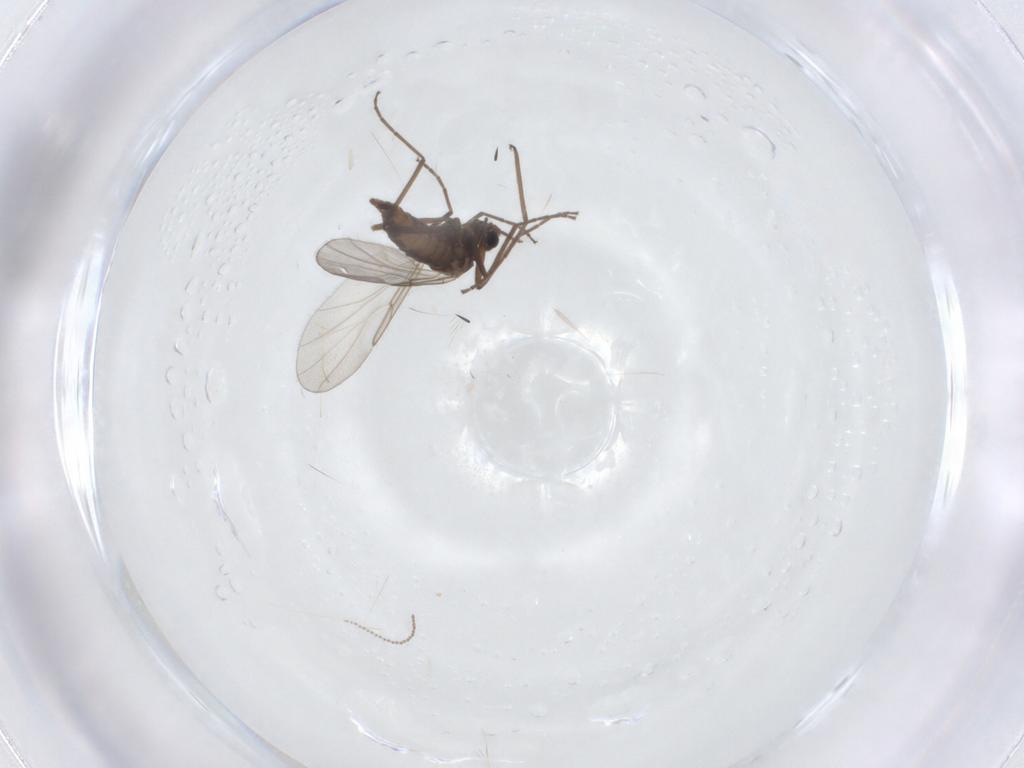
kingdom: Animalia
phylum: Arthropoda
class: Insecta
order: Diptera
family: Cecidomyiidae
